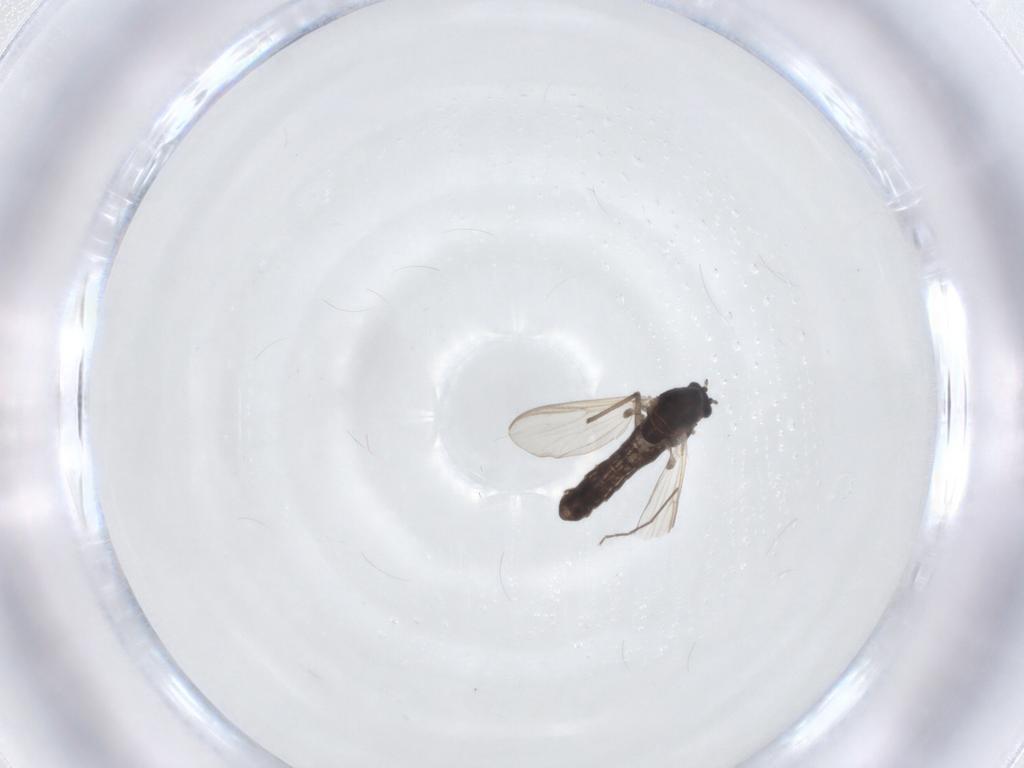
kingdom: Animalia
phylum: Arthropoda
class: Insecta
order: Diptera
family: Chironomidae
